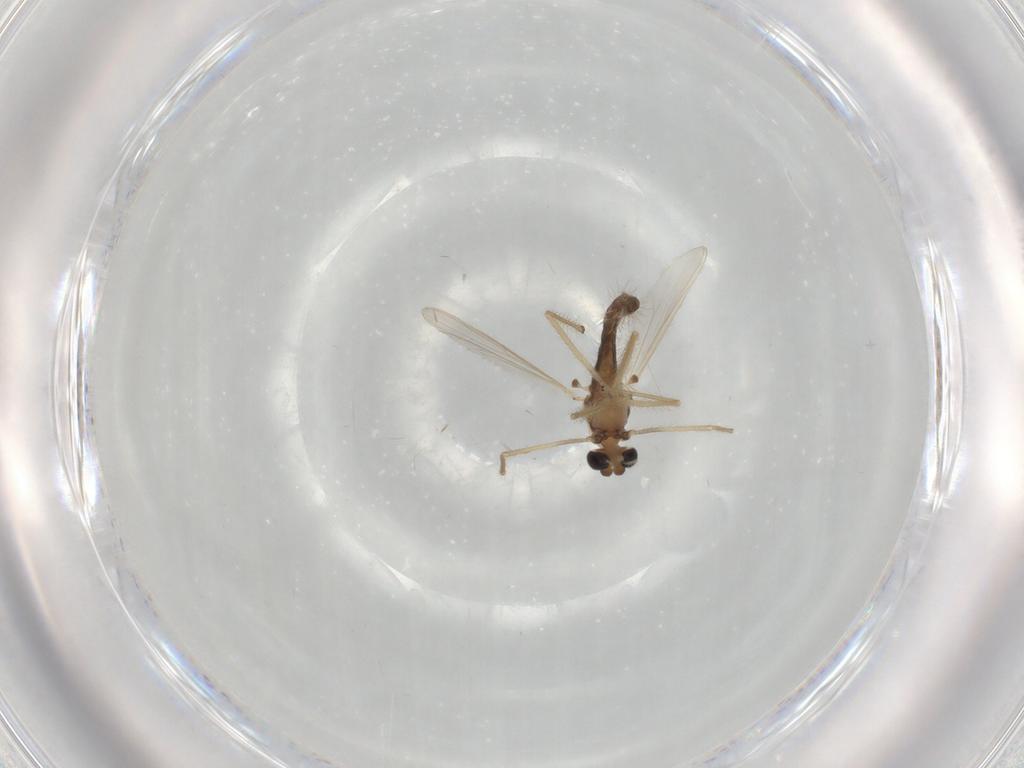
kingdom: Animalia
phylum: Arthropoda
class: Insecta
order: Diptera
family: Chironomidae
